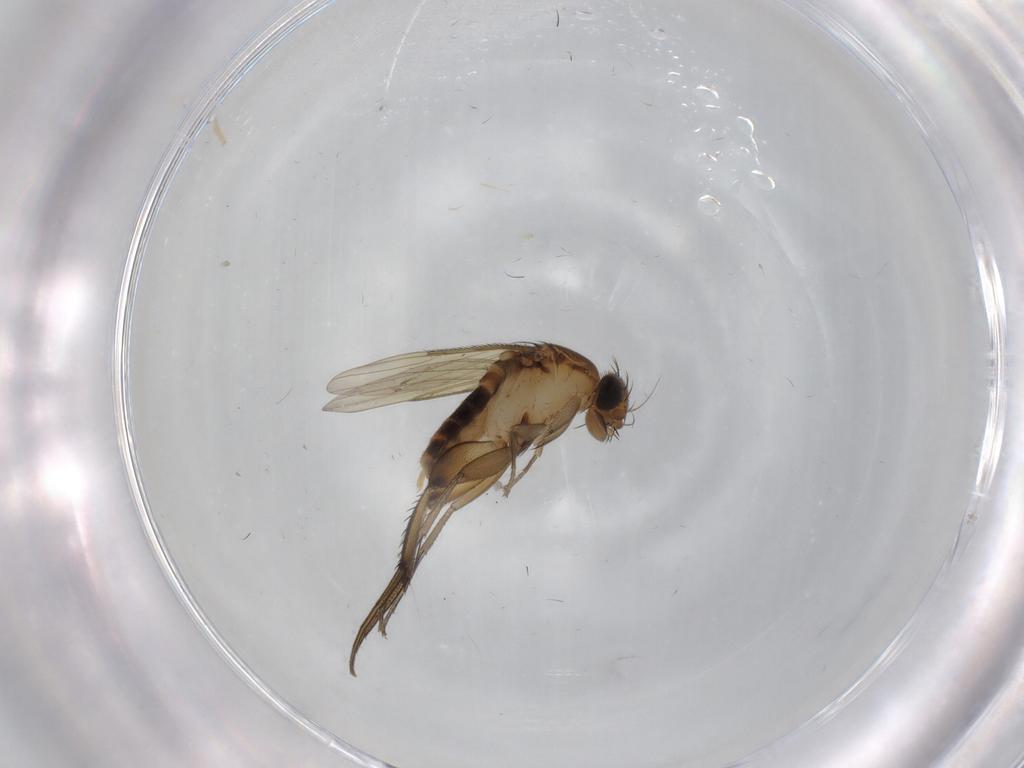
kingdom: Animalia
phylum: Arthropoda
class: Insecta
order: Diptera
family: Phoridae
